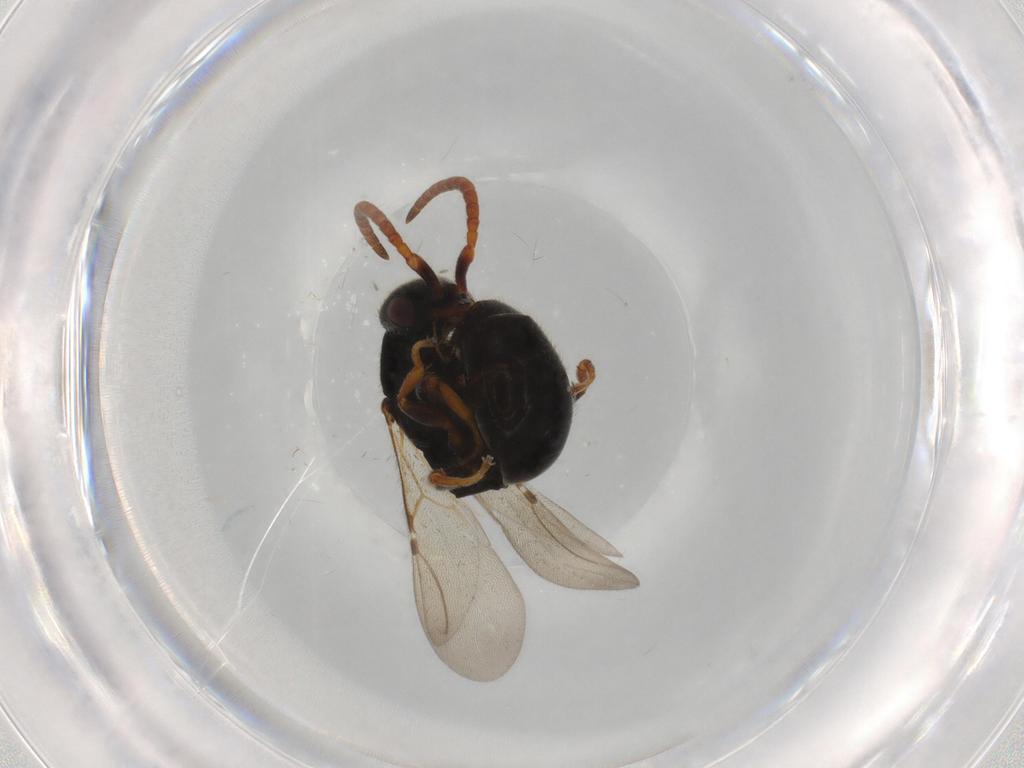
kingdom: Animalia
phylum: Arthropoda
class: Insecta
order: Hymenoptera
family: Bethylidae
